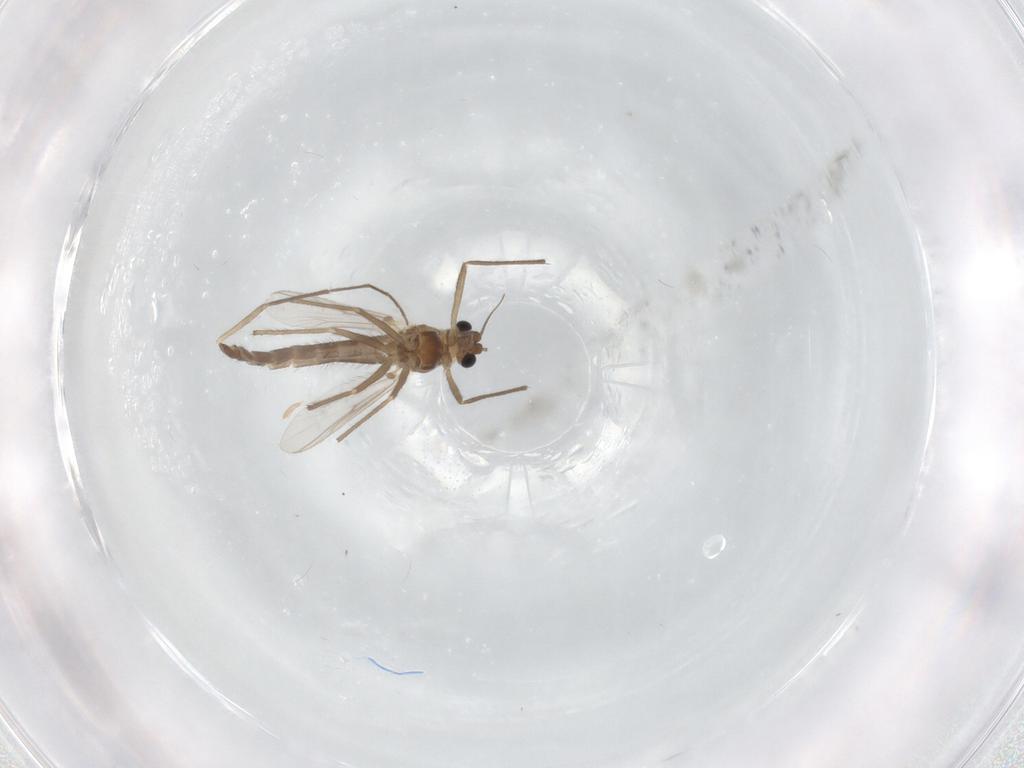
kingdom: Animalia
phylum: Arthropoda
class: Insecta
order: Diptera
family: Chironomidae
